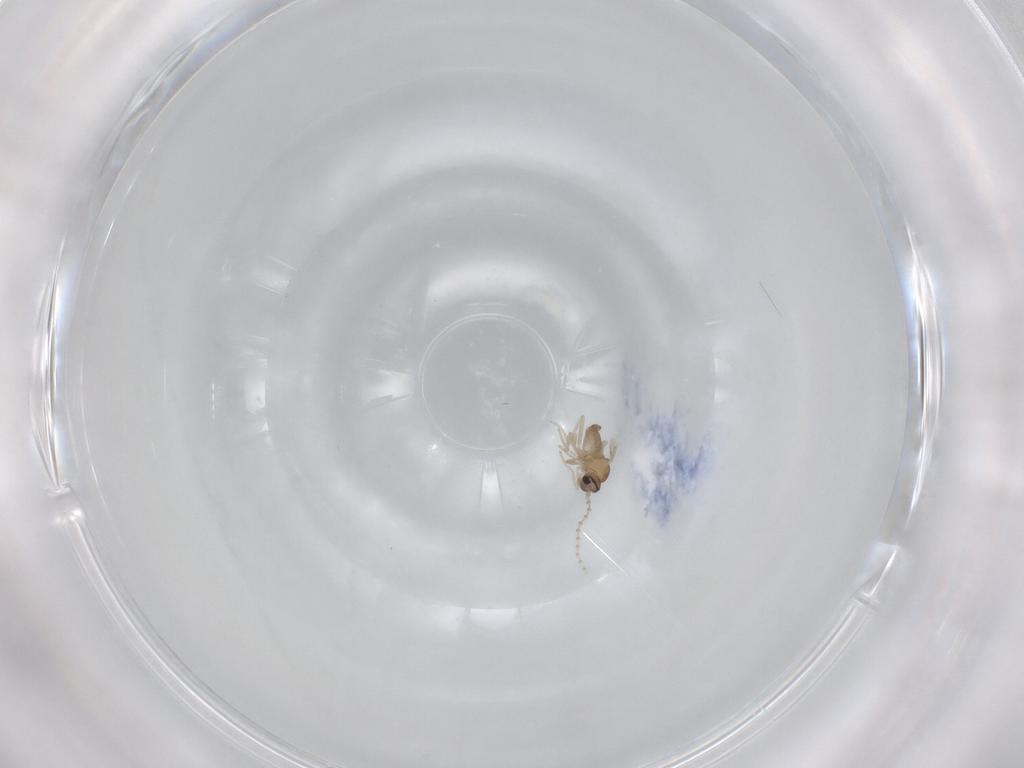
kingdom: Animalia
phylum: Arthropoda
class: Insecta
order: Diptera
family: Cecidomyiidae
